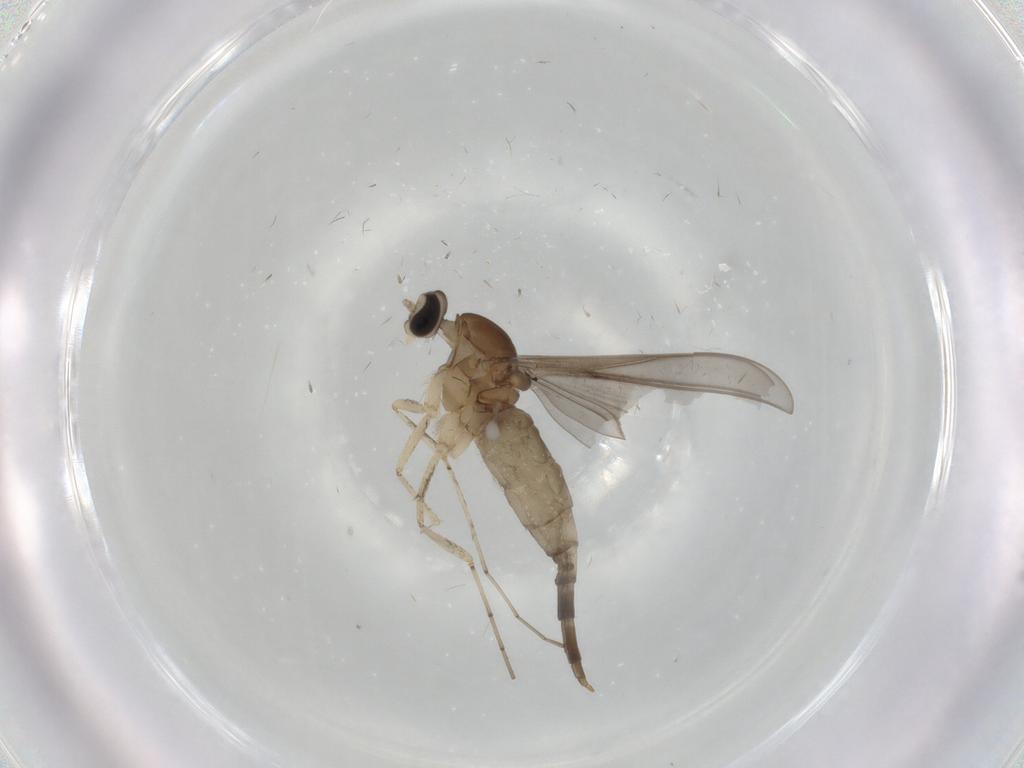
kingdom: Animalia
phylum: Arthropoda
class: Insecta
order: Diptera
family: Cecidomyiidae
